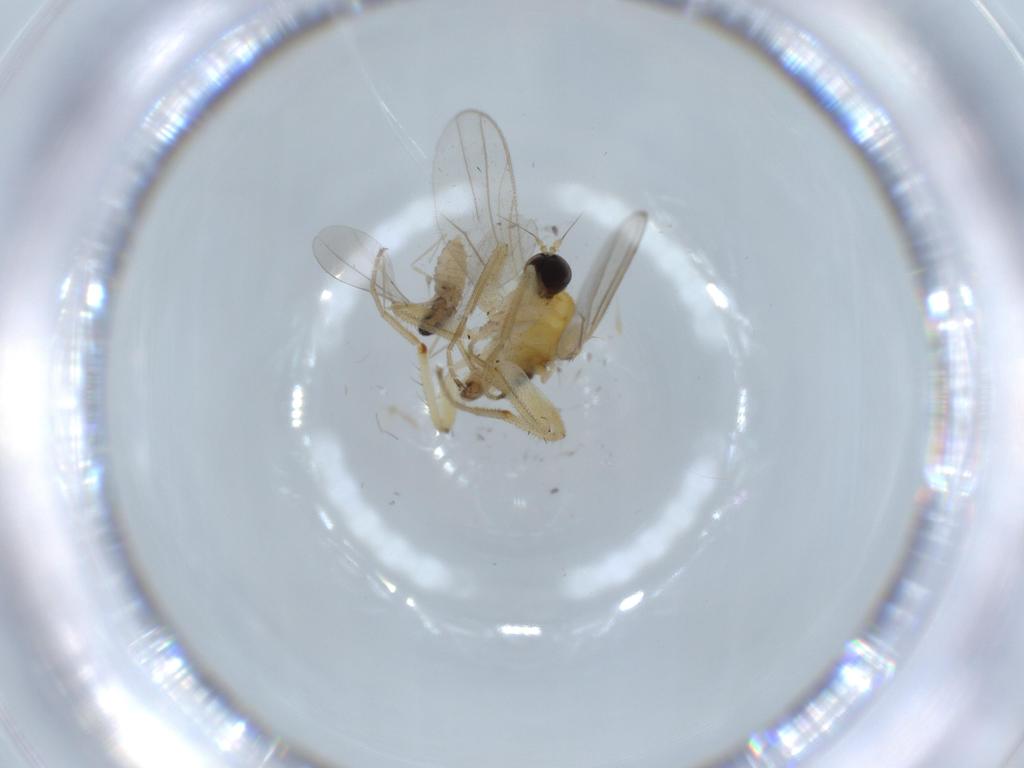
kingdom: Animalia
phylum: Arthropoda
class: Insecta
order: Diptera
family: Hybotidae
